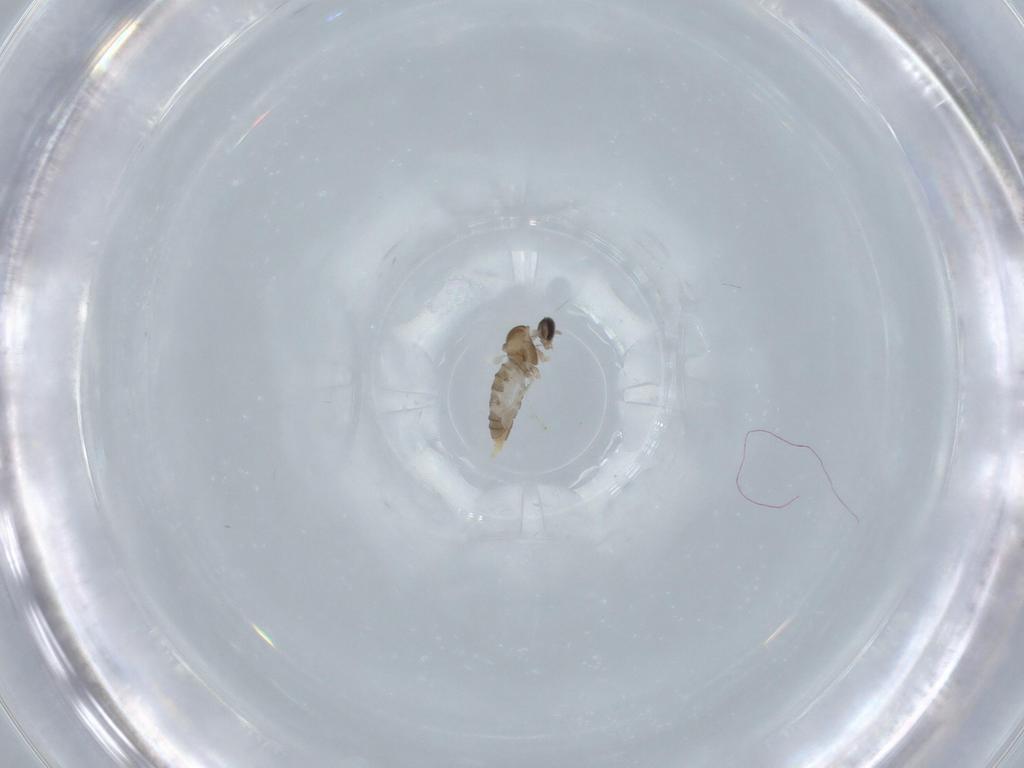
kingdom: Animalia
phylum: Arthropoda
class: Insecta
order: Diptera
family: Cecidomyiidae
